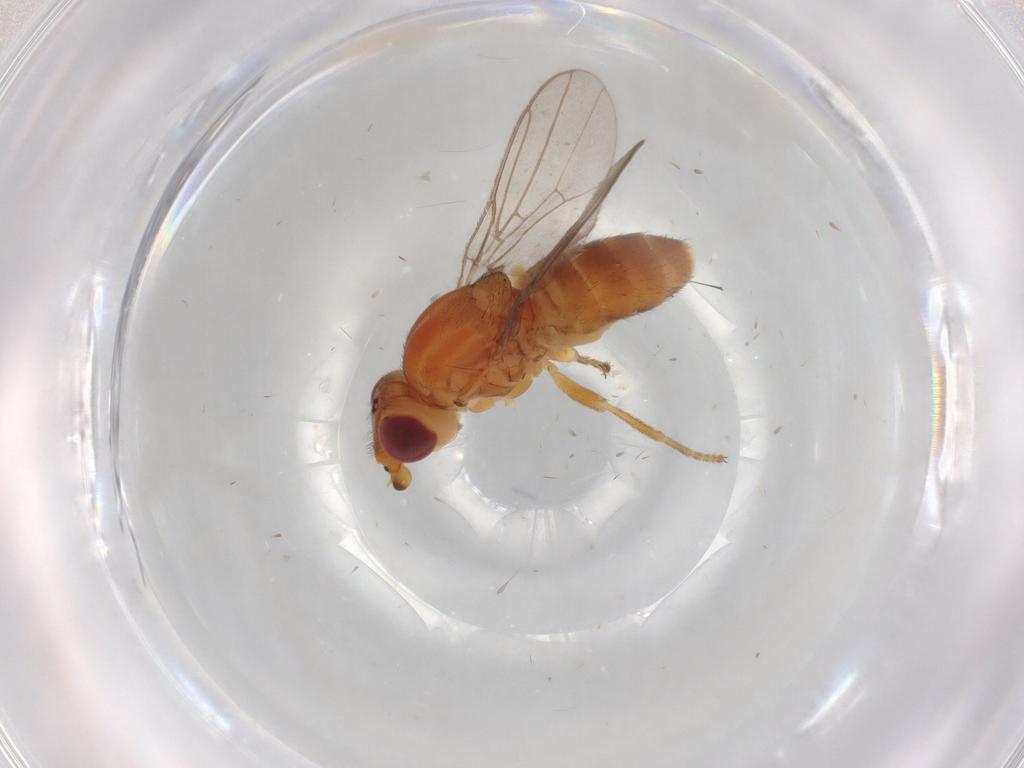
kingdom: Animalia
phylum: Arthropoda
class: Insecta
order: Diptera
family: Chloropidae
